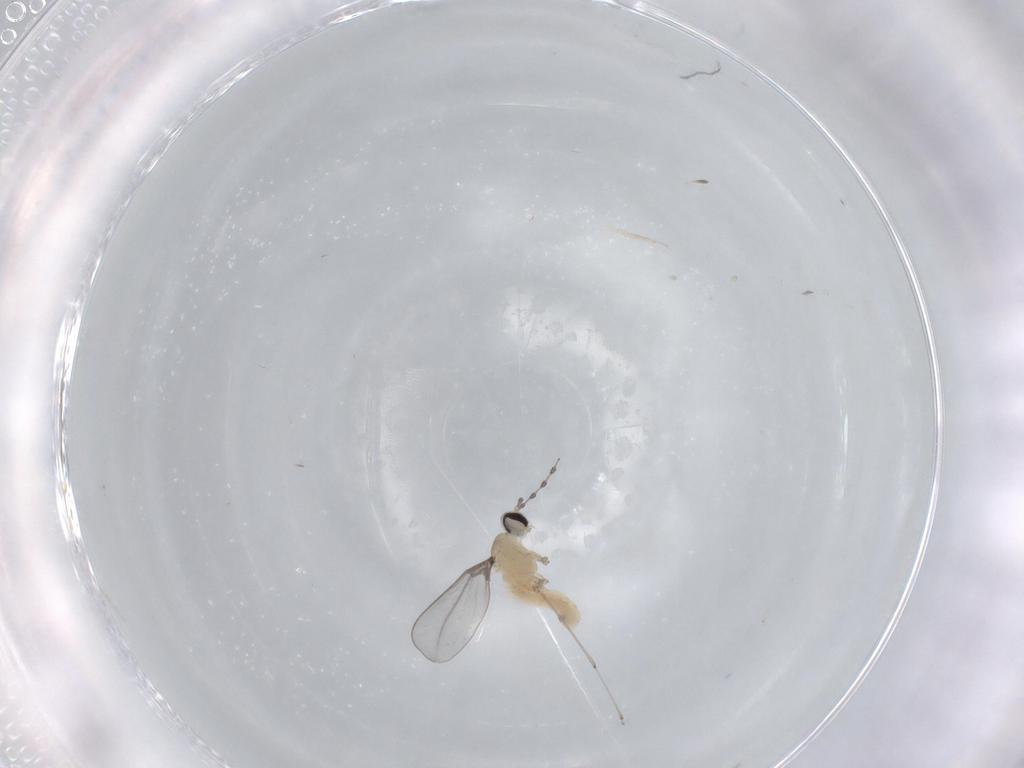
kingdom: Animalia
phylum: Arthropoda
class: Insecta
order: Diptera
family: Cecidomyiidae
